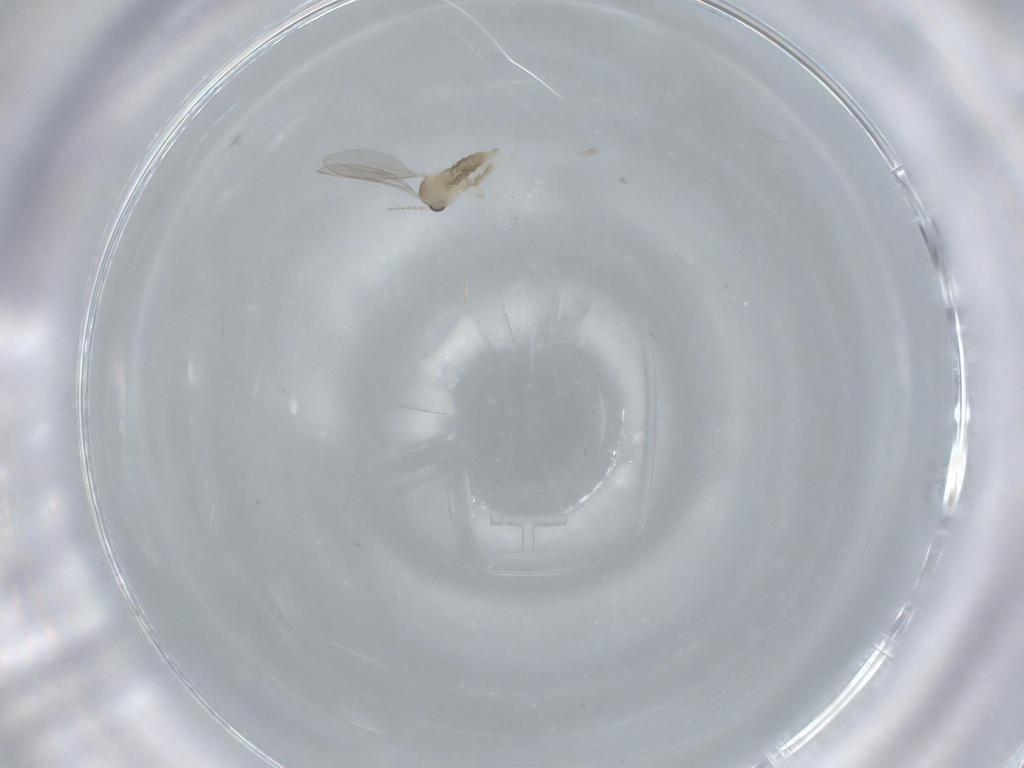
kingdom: Animalia
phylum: Arthropoda
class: Insecta
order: Diptera
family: Cecidomyiidae
